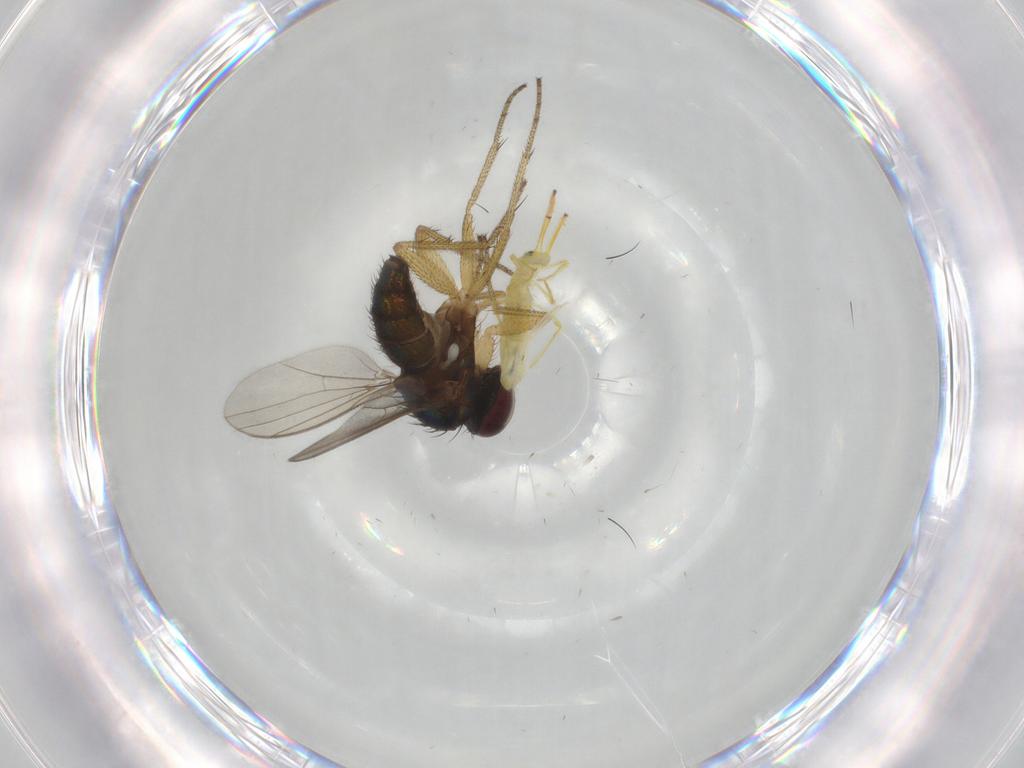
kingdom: Animalia
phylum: Arthropoda
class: Insecta
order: Diptera
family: Dolichopodidae
